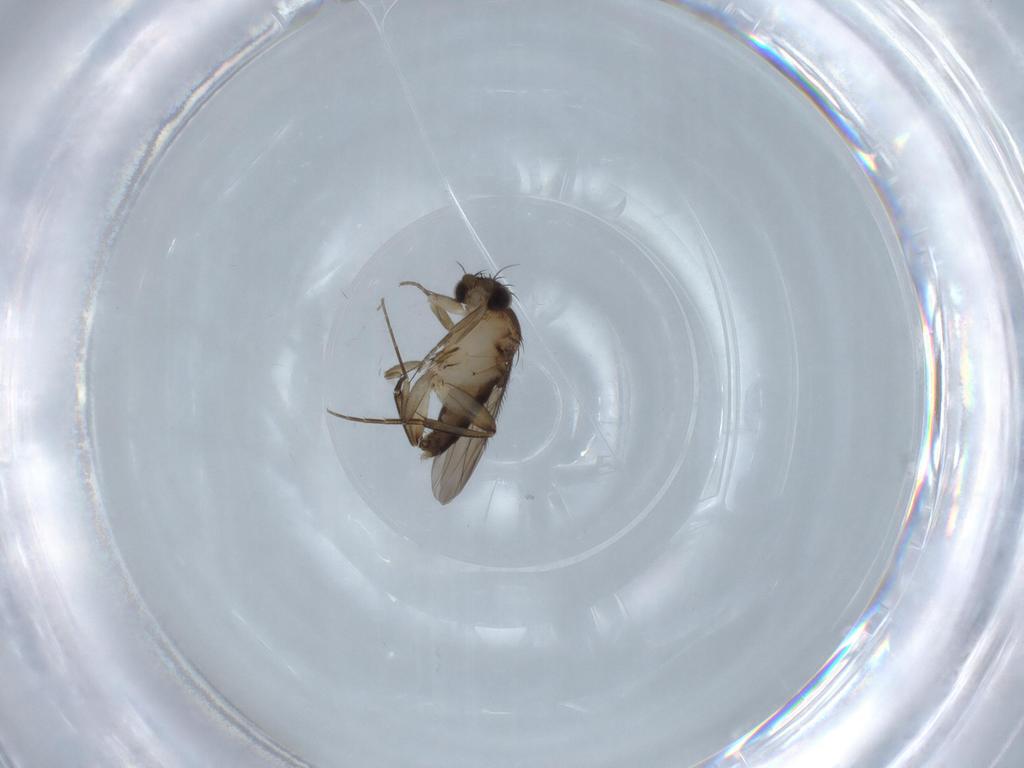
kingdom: Animalia
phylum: Arthropoda
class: Insecta
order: Diptera
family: Phoridae
